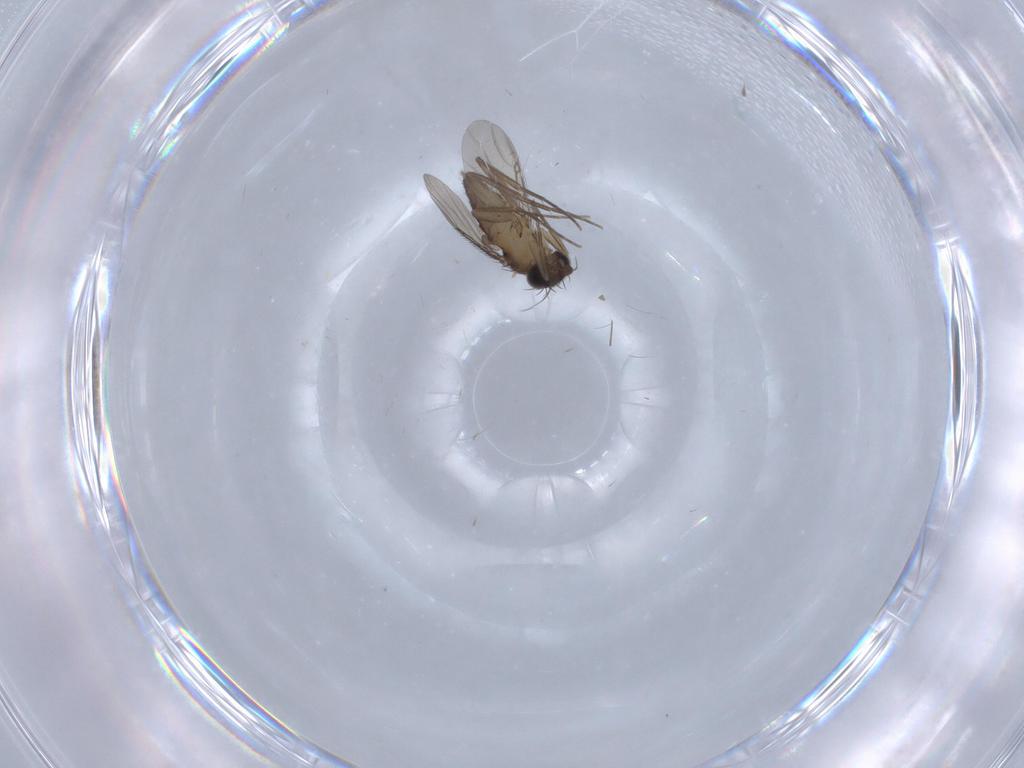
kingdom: Animalia
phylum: Arthropoda
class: Insecta
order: Diptera
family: Phoridae
